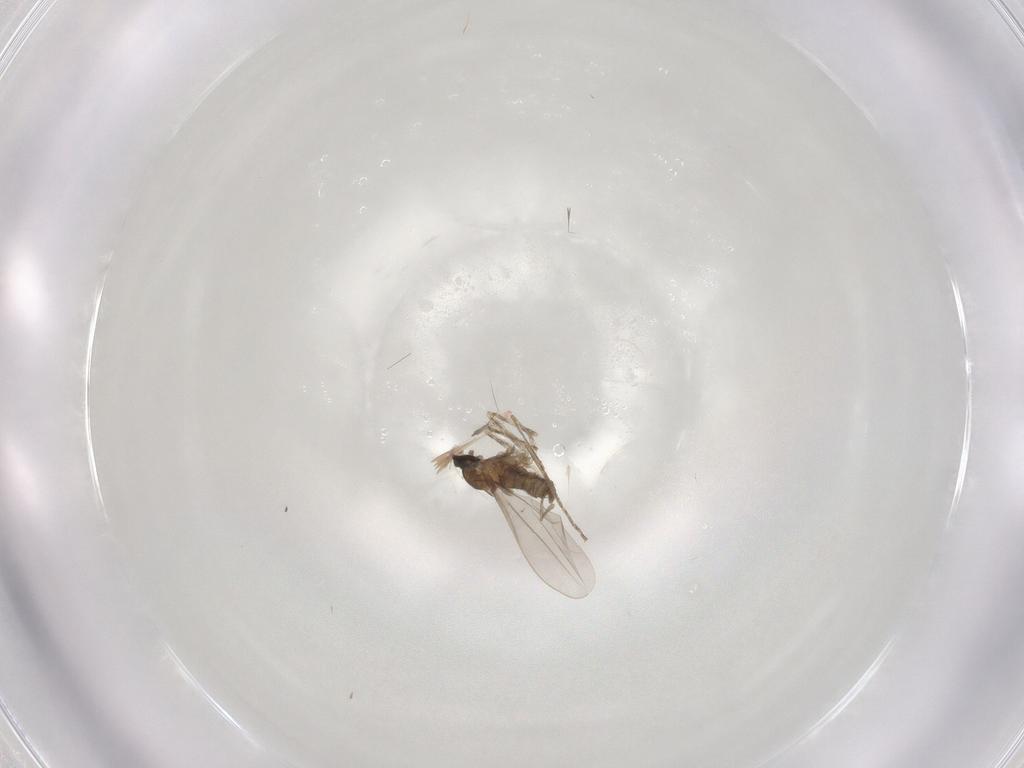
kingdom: Animalia
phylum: Arthropoda
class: Insecta
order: Diptera
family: Cecidomyiidae
